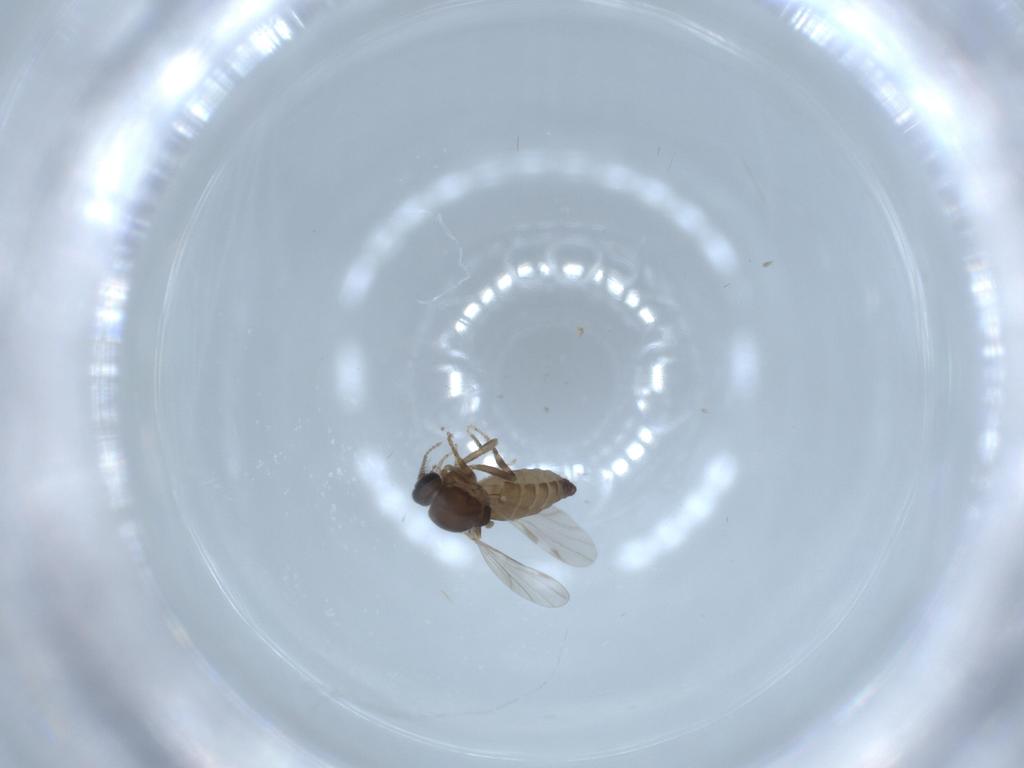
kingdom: Animalia
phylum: Arthropoda
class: Insecta
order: Diptera
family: Ceratopogonidae
